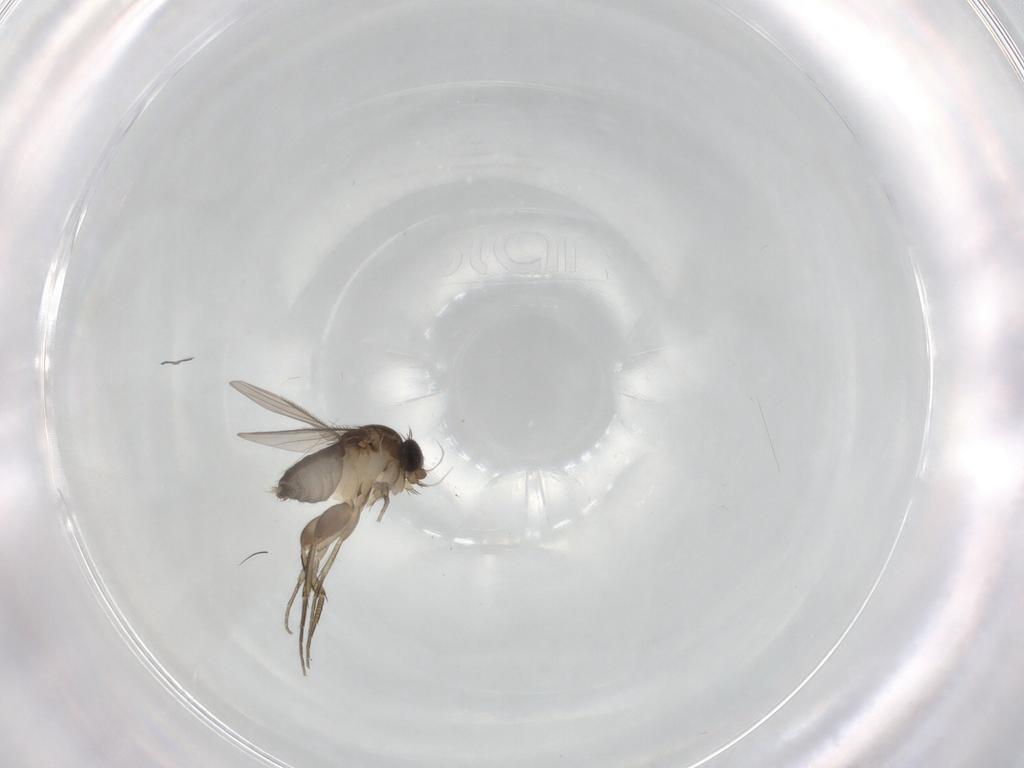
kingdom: Animalia
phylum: Arthropoda
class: Insecta
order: Diptera
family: Phoridae
